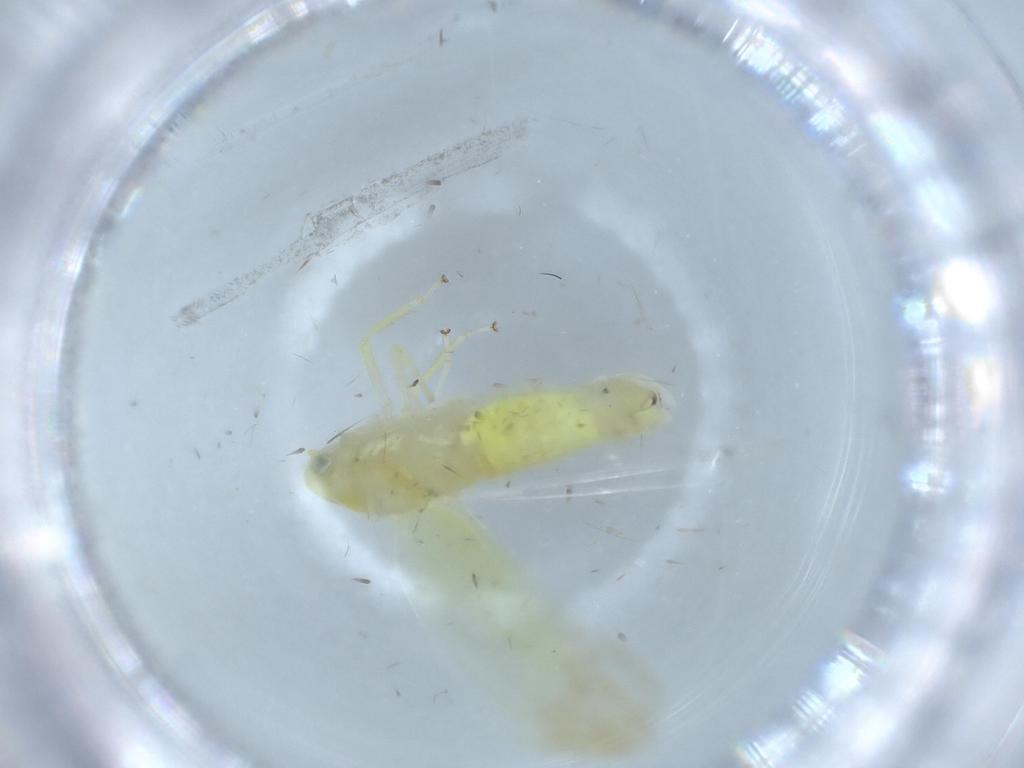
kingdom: Animalia
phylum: Arthropoda
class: Insecta
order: Hemiptera
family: Cicadellidae
